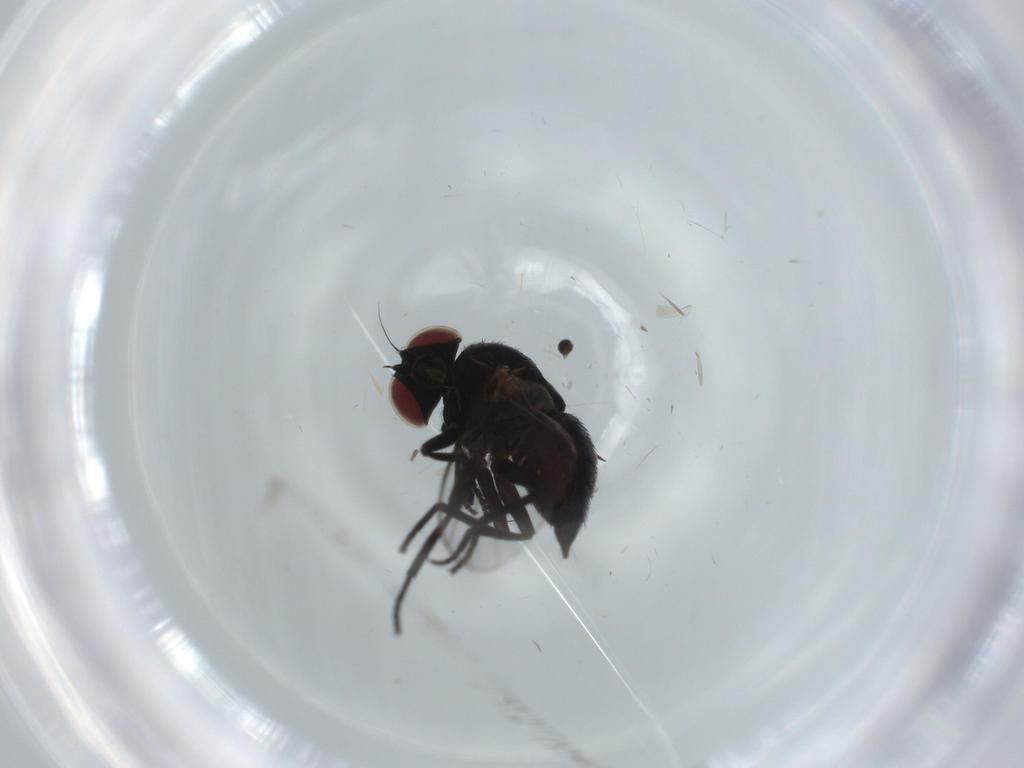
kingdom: Animalia
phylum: Arthropoda
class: Insecta
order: Diptera
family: Agromyzidae
